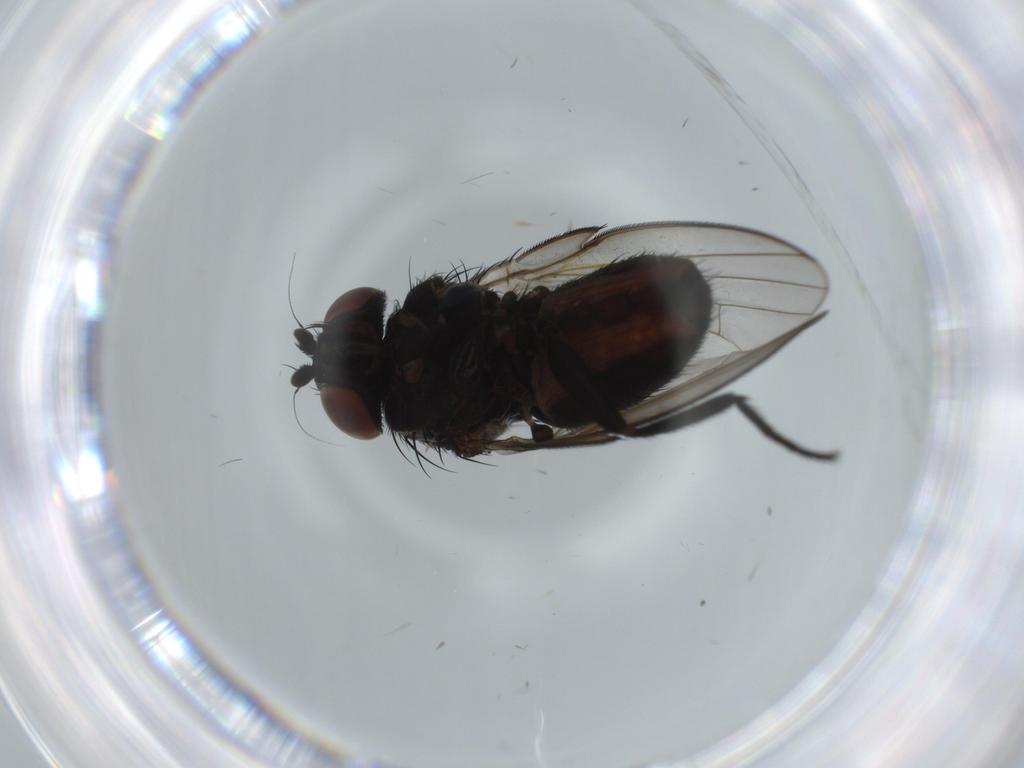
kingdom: Animalia
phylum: Arthropoda
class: Insecta
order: Diptera
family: Milichiidae
